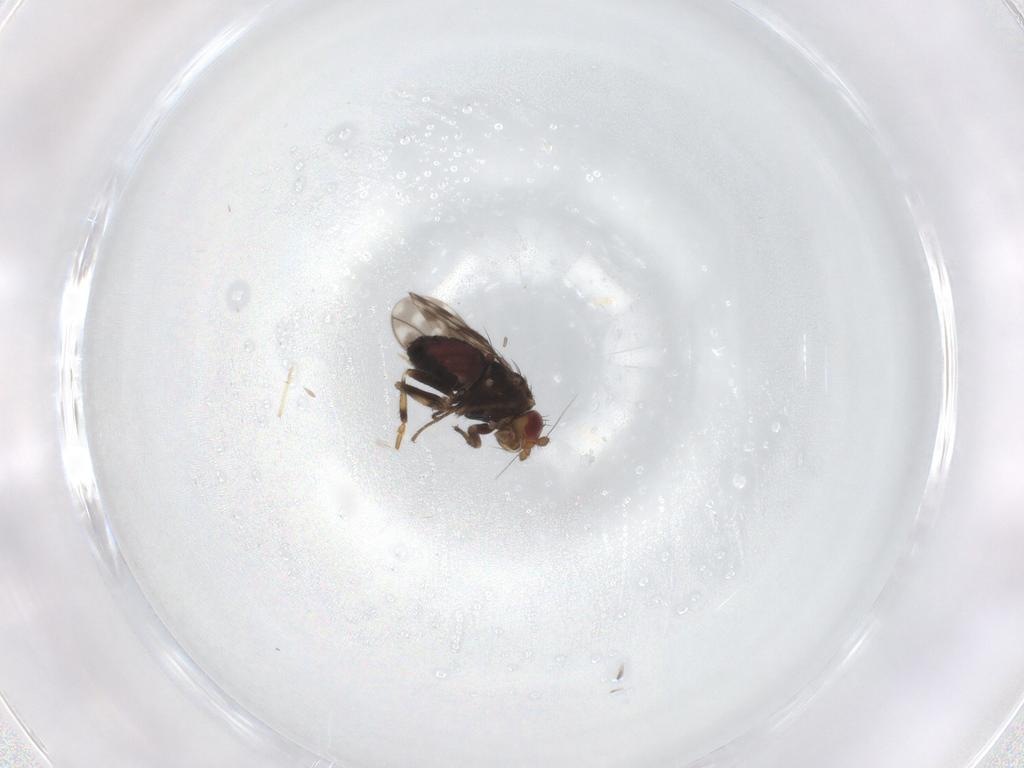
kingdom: Animalia
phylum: Arthropoda
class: Insecta
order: Diptera
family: Sphaeroceridae
